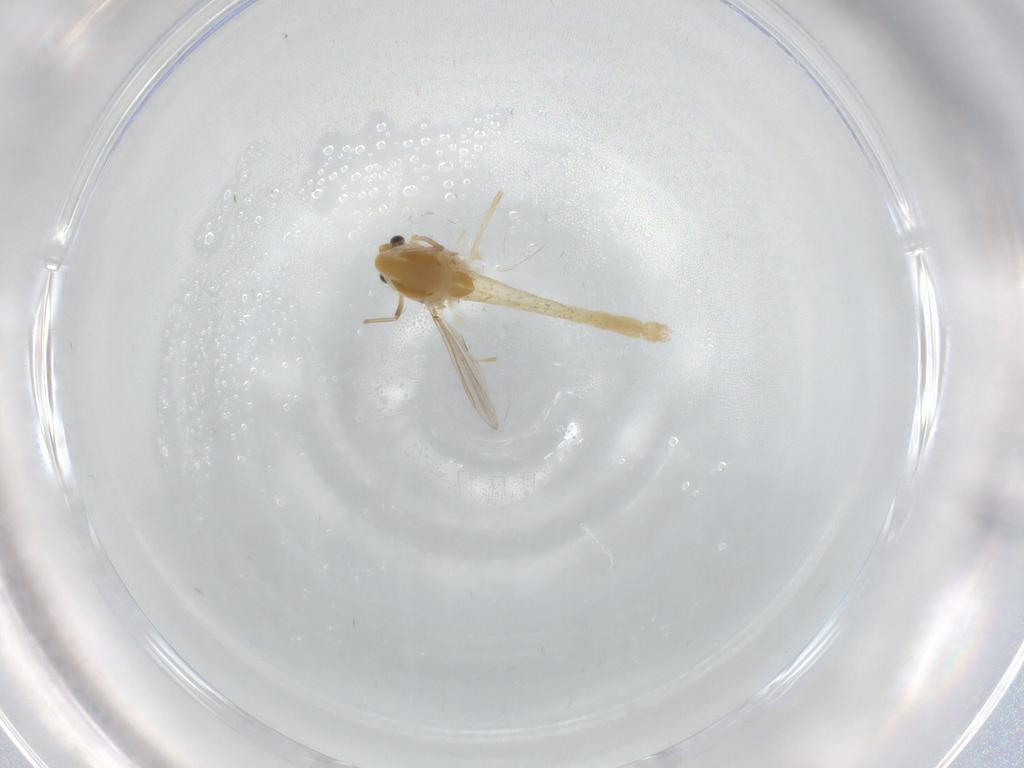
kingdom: Animalia
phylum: Arthropoda
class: Insecta
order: Diptera
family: Chironomidae
